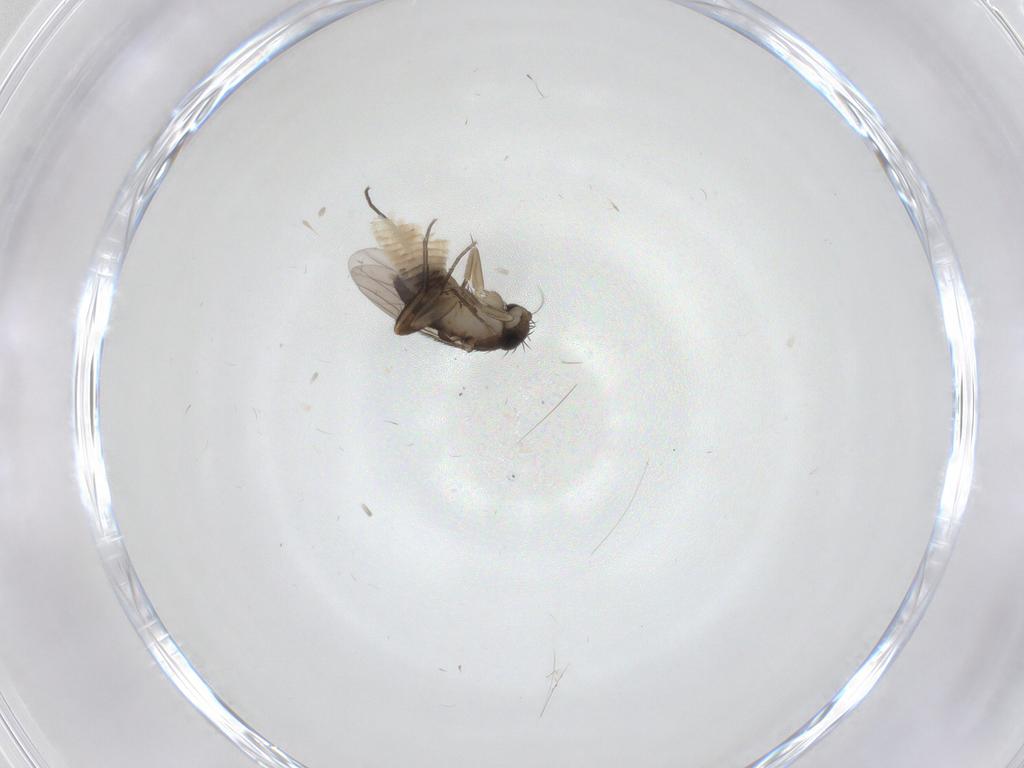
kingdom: Animalia
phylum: Arthropoda
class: Insecta
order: Diptera
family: Phoridae
